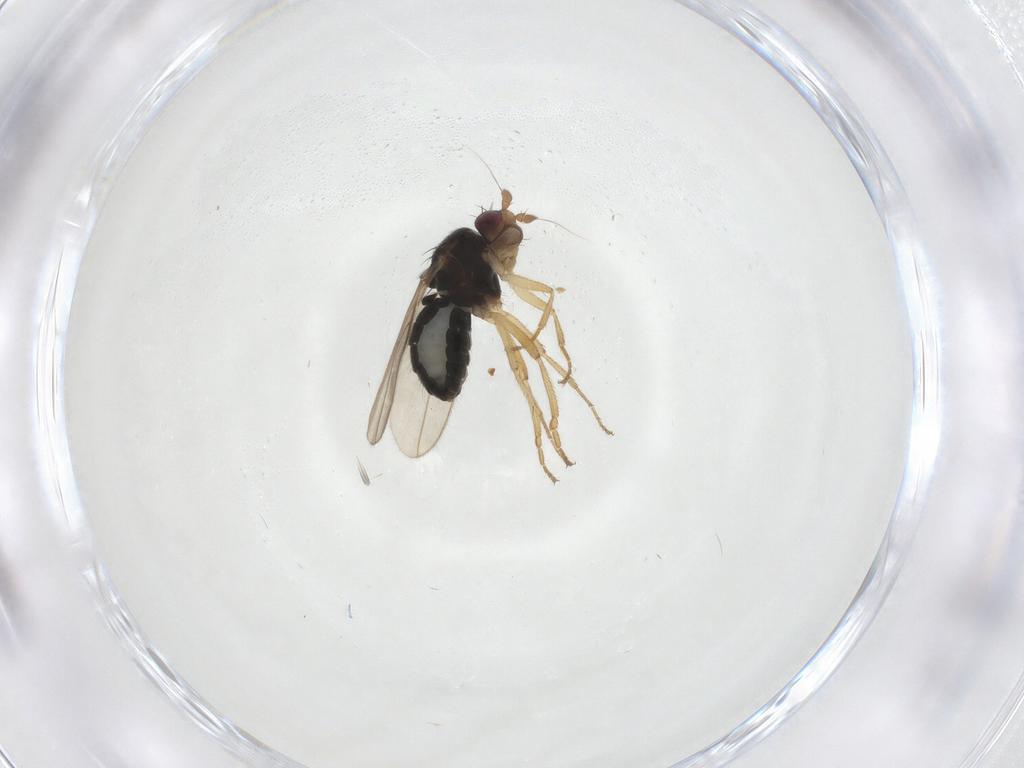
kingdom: Animalia
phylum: Arthropoda
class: Insecta
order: Diptera
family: Sphaeroceridae
